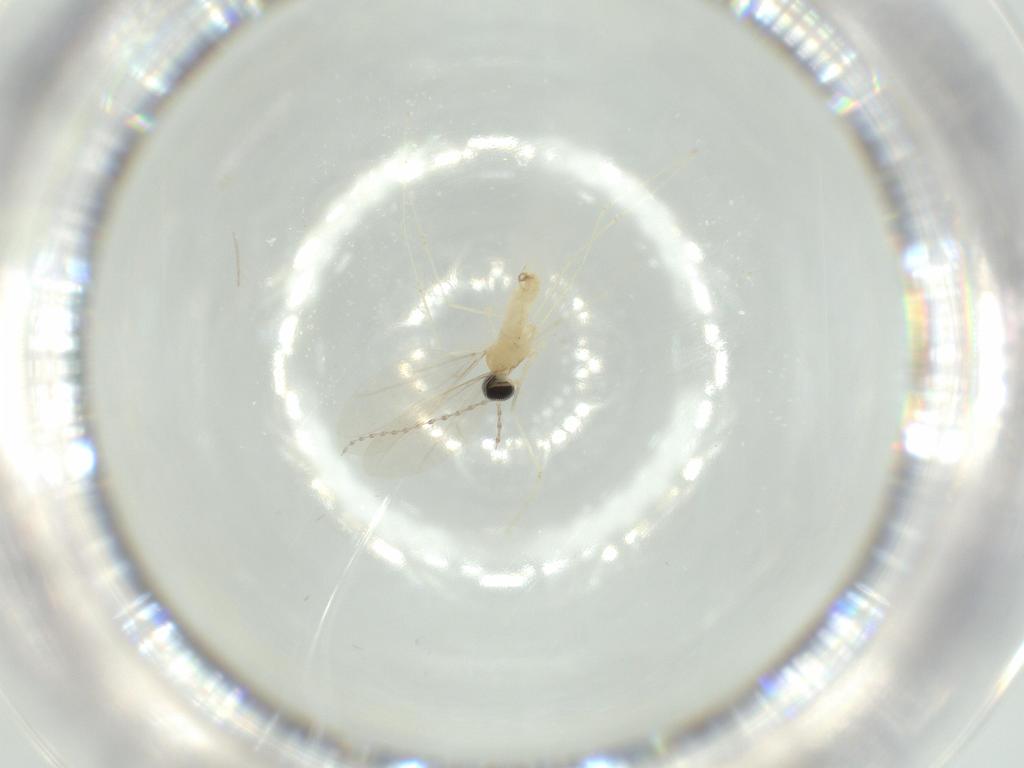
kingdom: Animalia
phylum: Arthropoda
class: Insecta
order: Diptera
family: Cecidomyiidae
